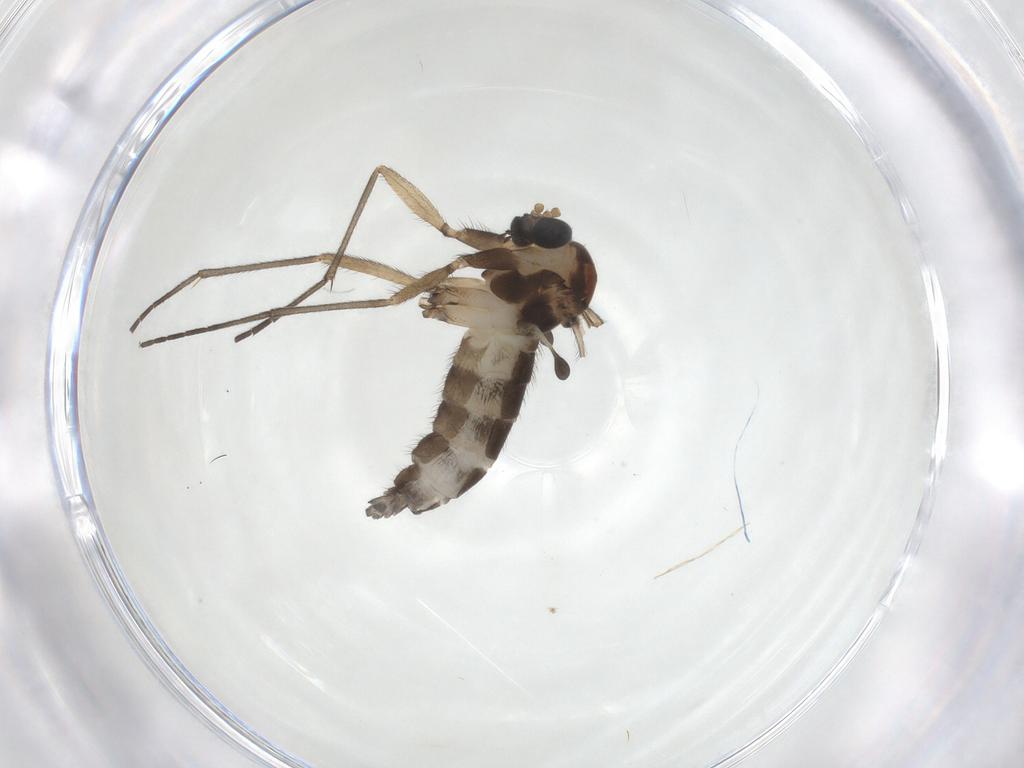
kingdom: Animalia
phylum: Arthropoda
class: Insecta
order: Diptera
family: Sciaridae
